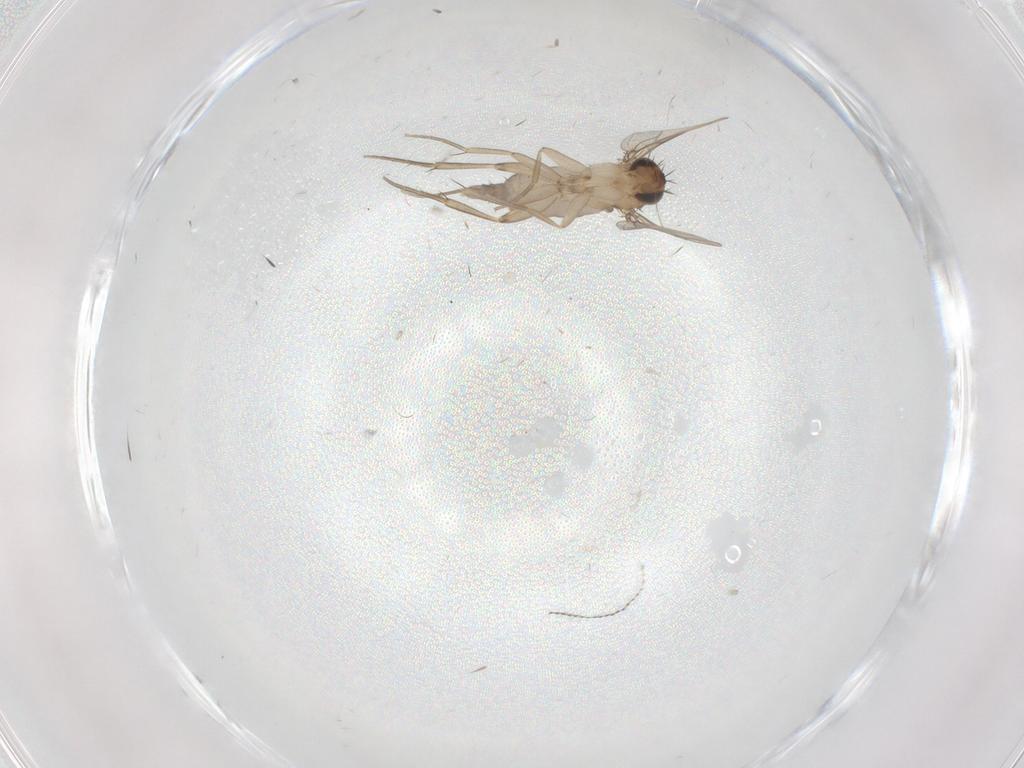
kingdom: Animalia
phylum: Arthropoda
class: Insecta
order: Diptera
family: Phoridae
